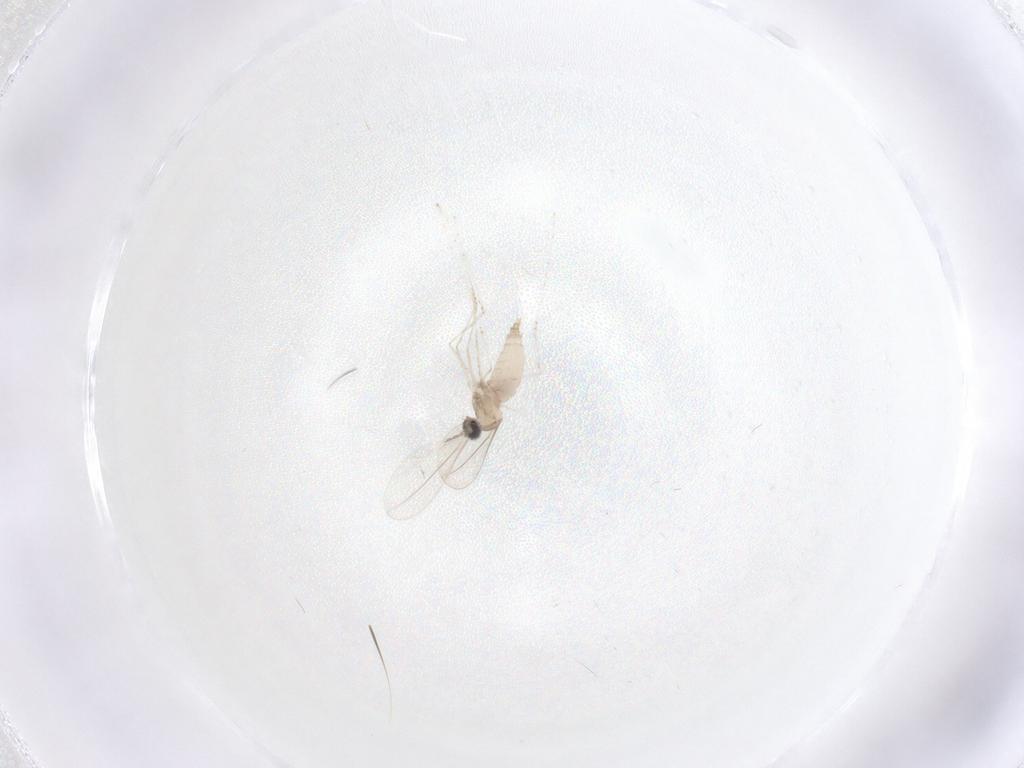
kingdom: Animalia
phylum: Arthropoda
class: Insecta
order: Diptera
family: Cecidomyiidae
